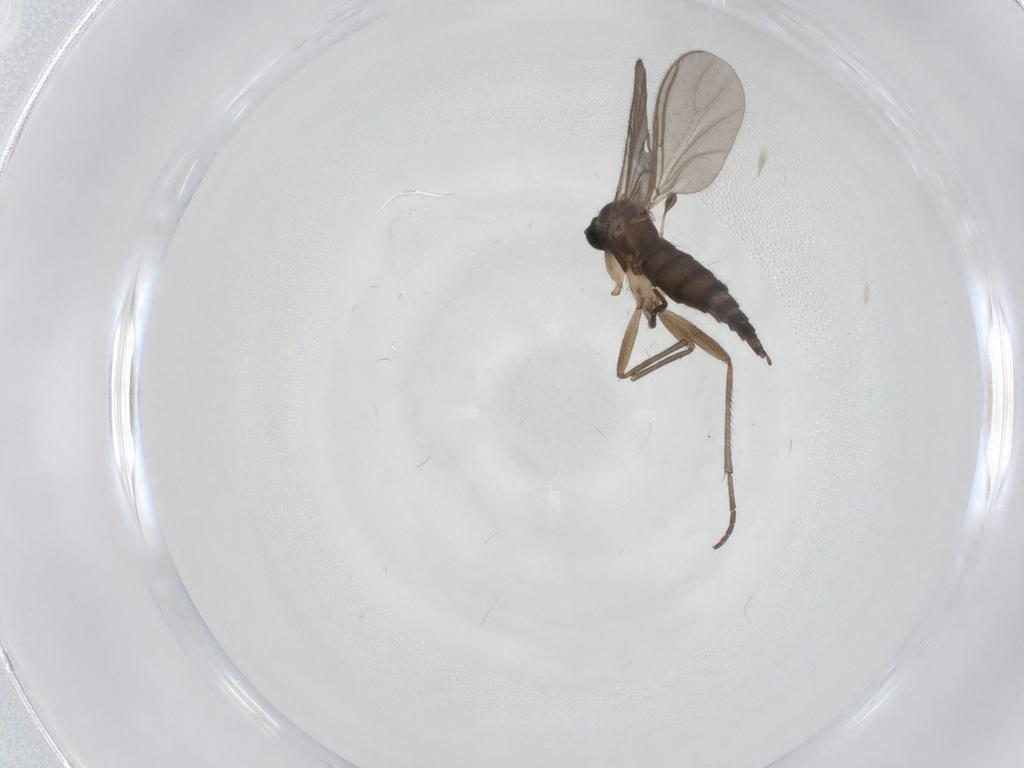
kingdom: Animalia
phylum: Arthropoda
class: Insecta
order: Diptera
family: Sciaridae
